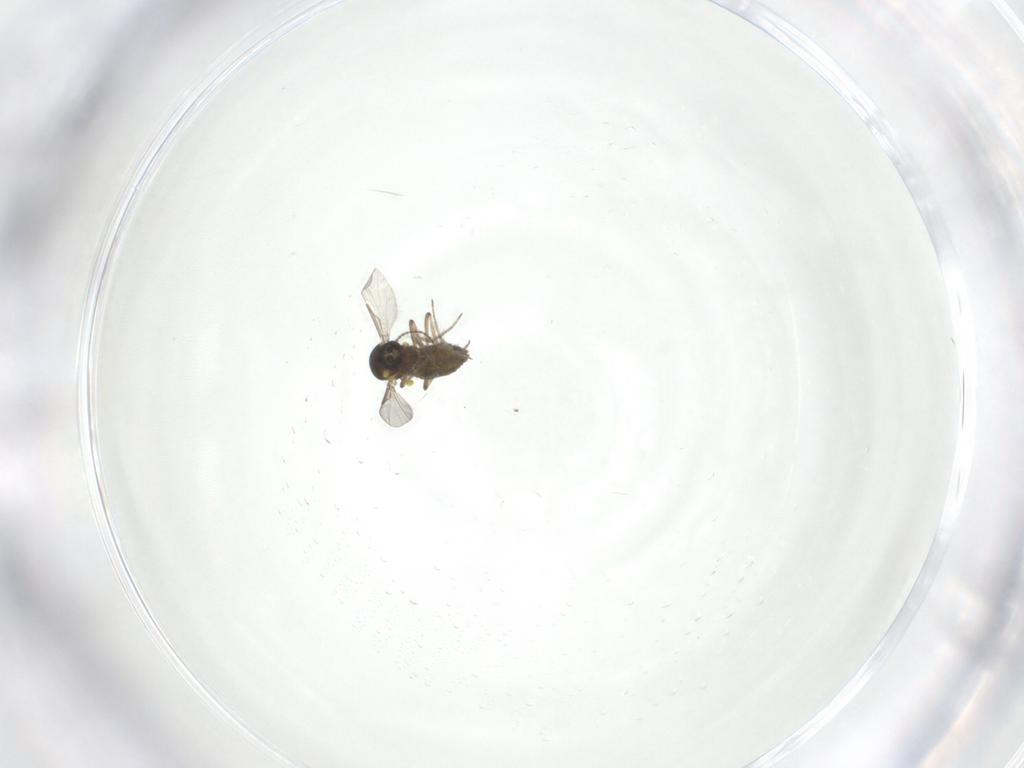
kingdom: Animalia
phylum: Arthropoda
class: Insecta
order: Diptera
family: Ceratopogonidae
